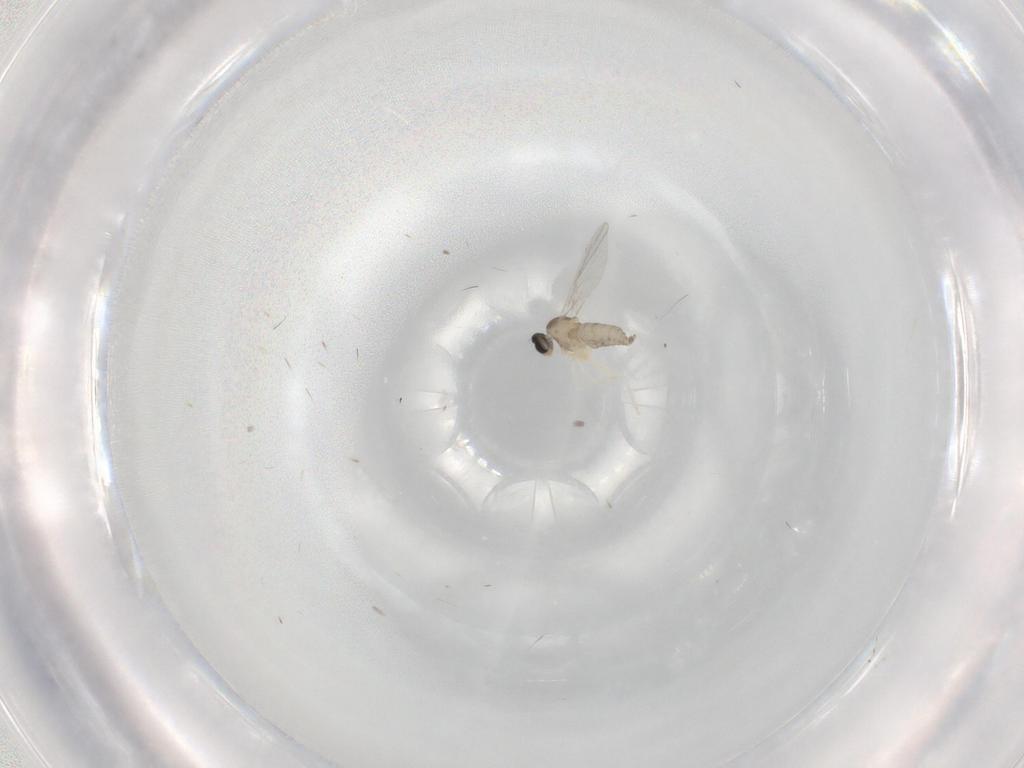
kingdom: Animalia
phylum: Arthropoda
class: Insecta
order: Diptera
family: Cecidomyiidae
